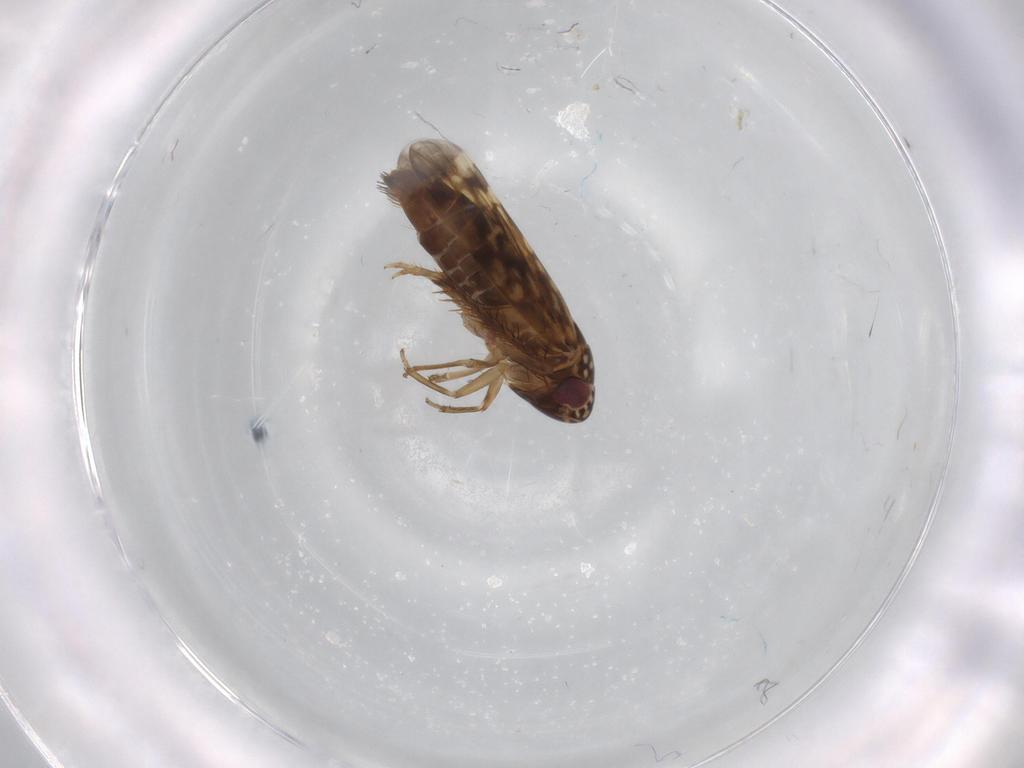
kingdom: Animalia
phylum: Arthropoda
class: Insecta
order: Hemiptera
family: Cicadellidae
